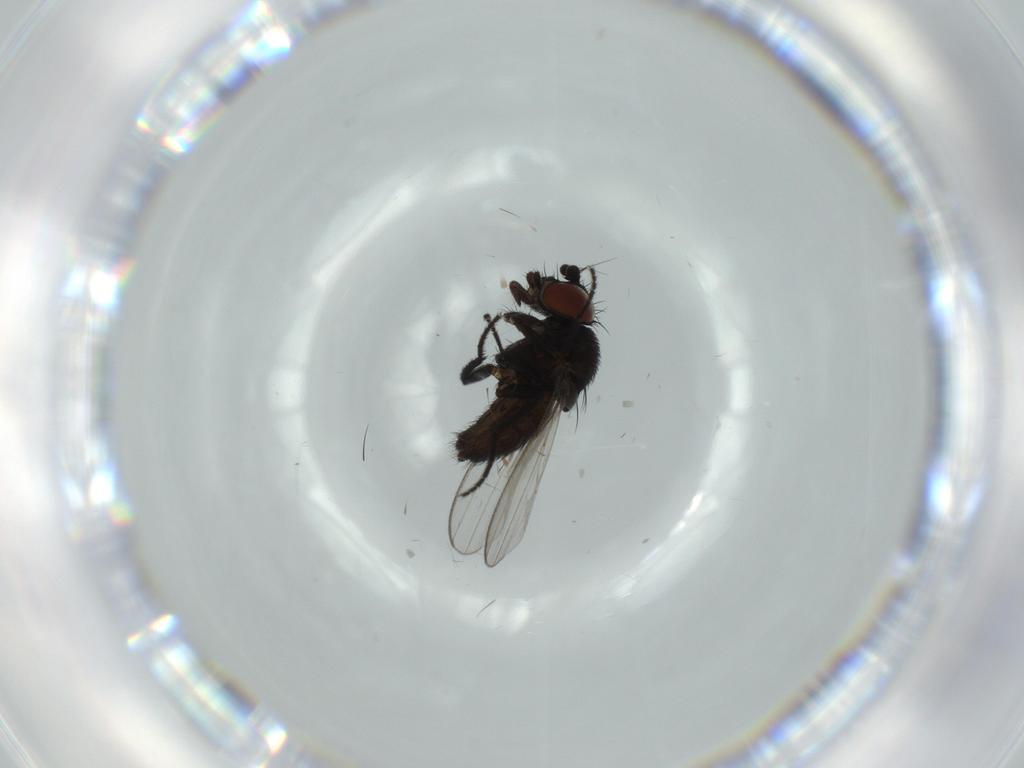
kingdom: Animalia
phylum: Arthropoda
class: Insecta
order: Diptera
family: Milichiidae
